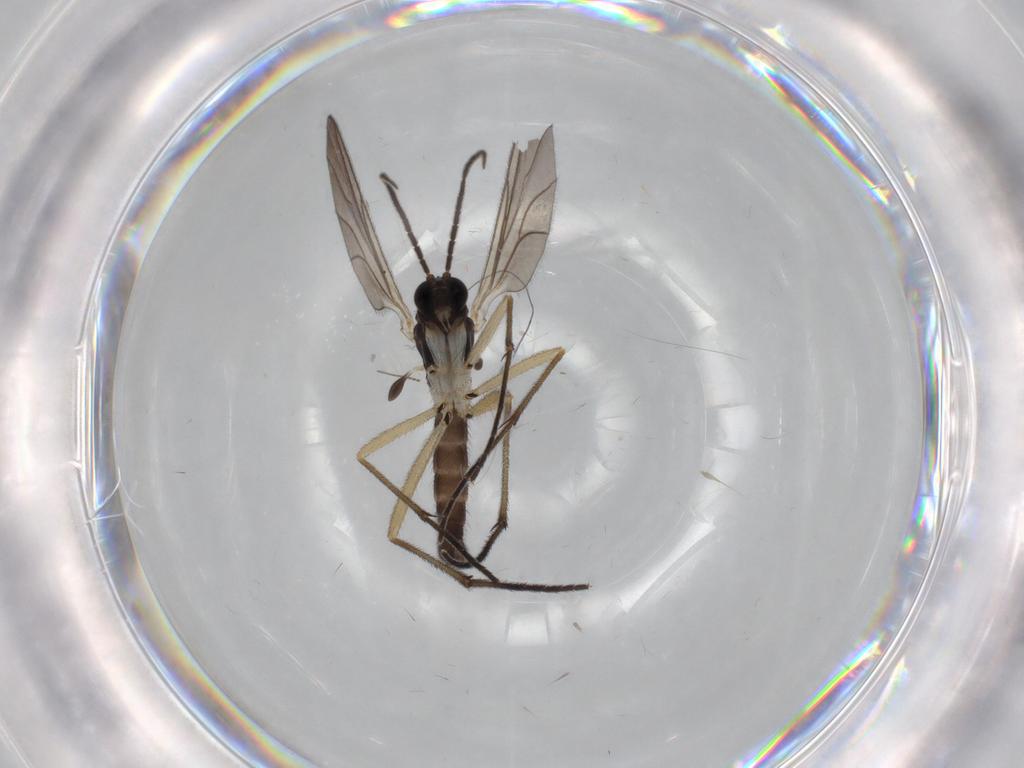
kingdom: Animalia
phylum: Arthropoda
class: Insecta
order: Diptera
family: Sciaridae
